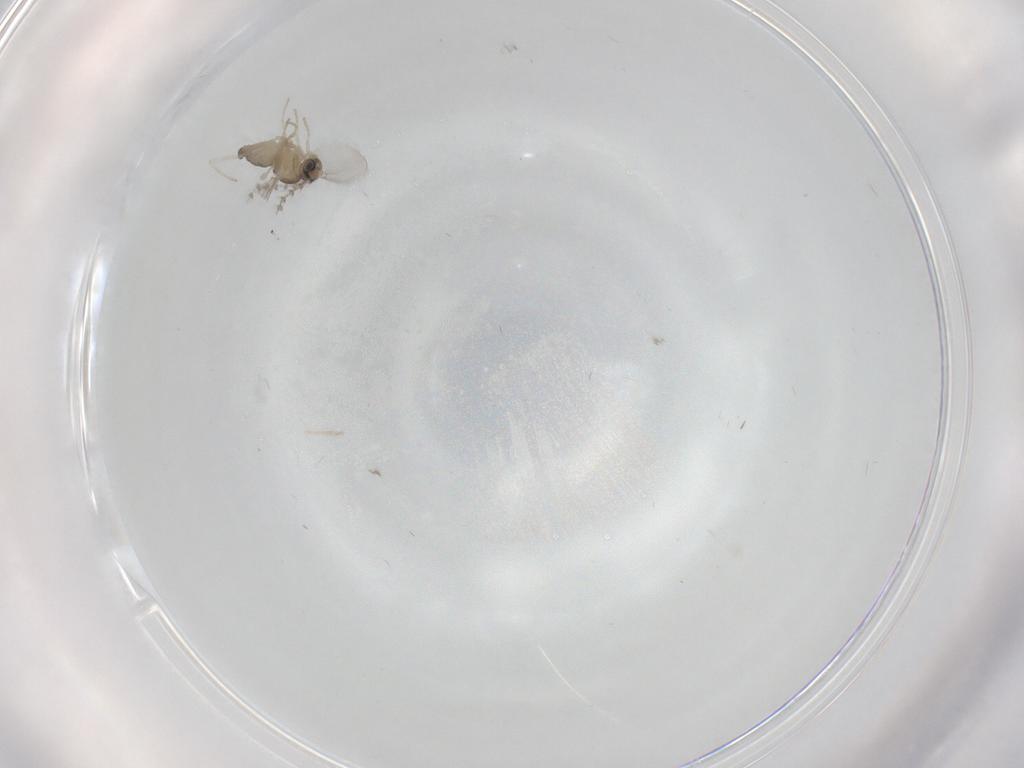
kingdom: Animalia
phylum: Arthropoda
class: Insecta
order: Diptera
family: Cecidomyiidae
